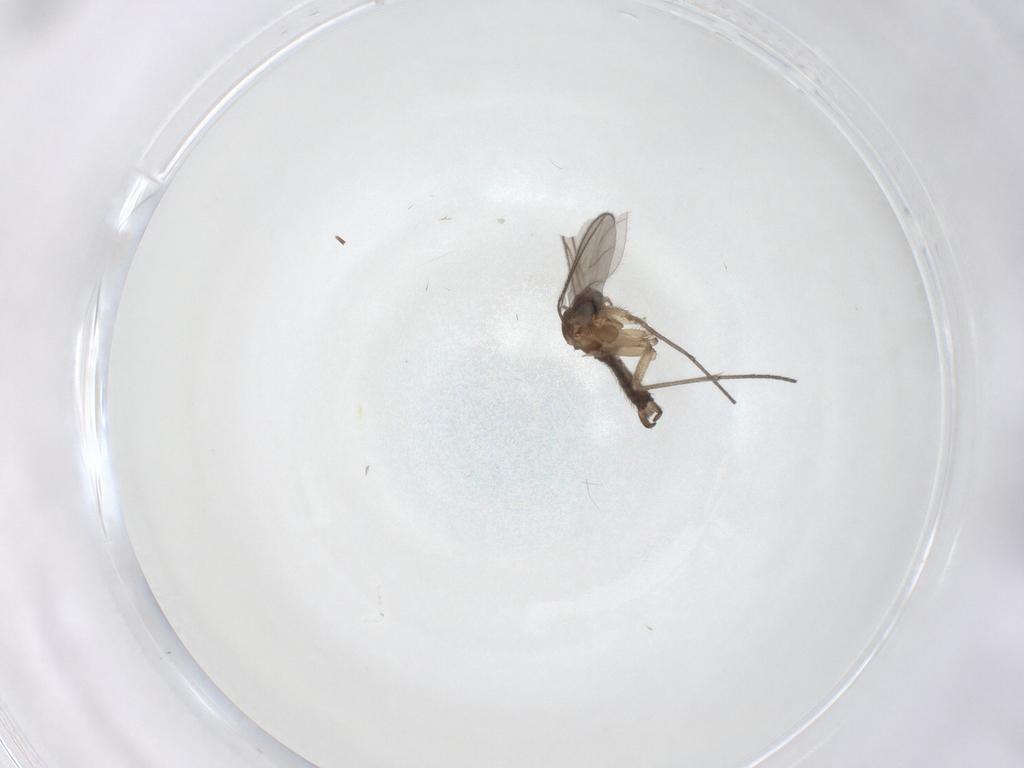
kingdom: Animalia
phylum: Arthropoda
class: Insecta
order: Diptera
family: Sciaridae
